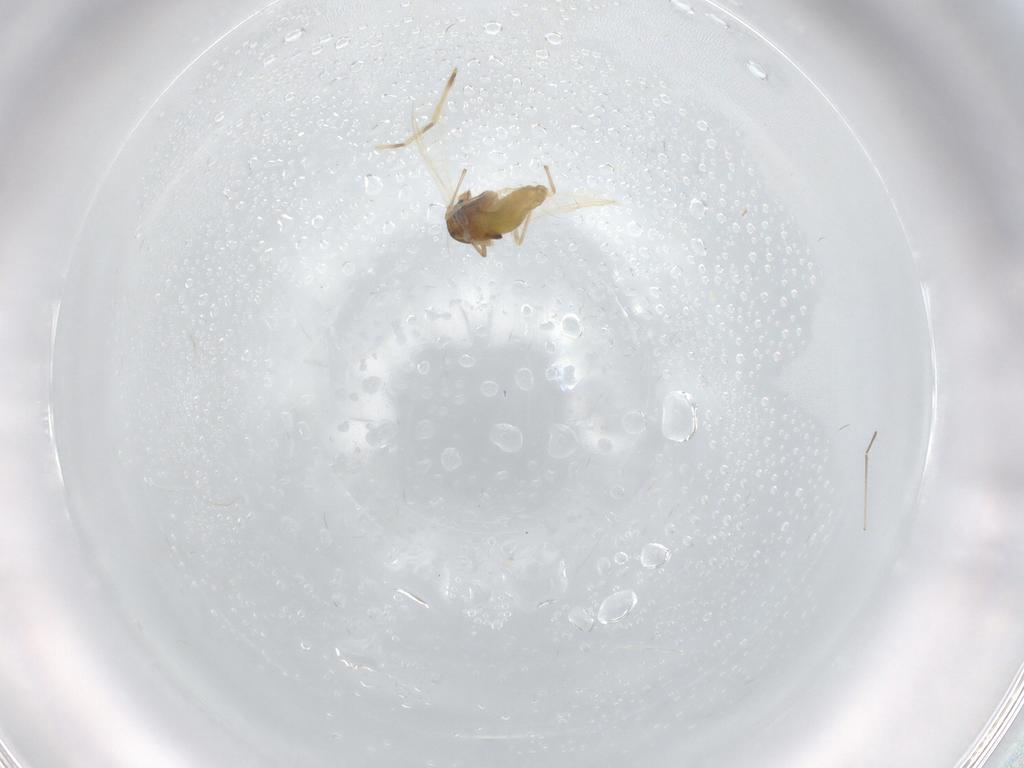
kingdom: Animalia
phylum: Arthropoda
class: Insecta
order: Diptera
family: Chironomidae
